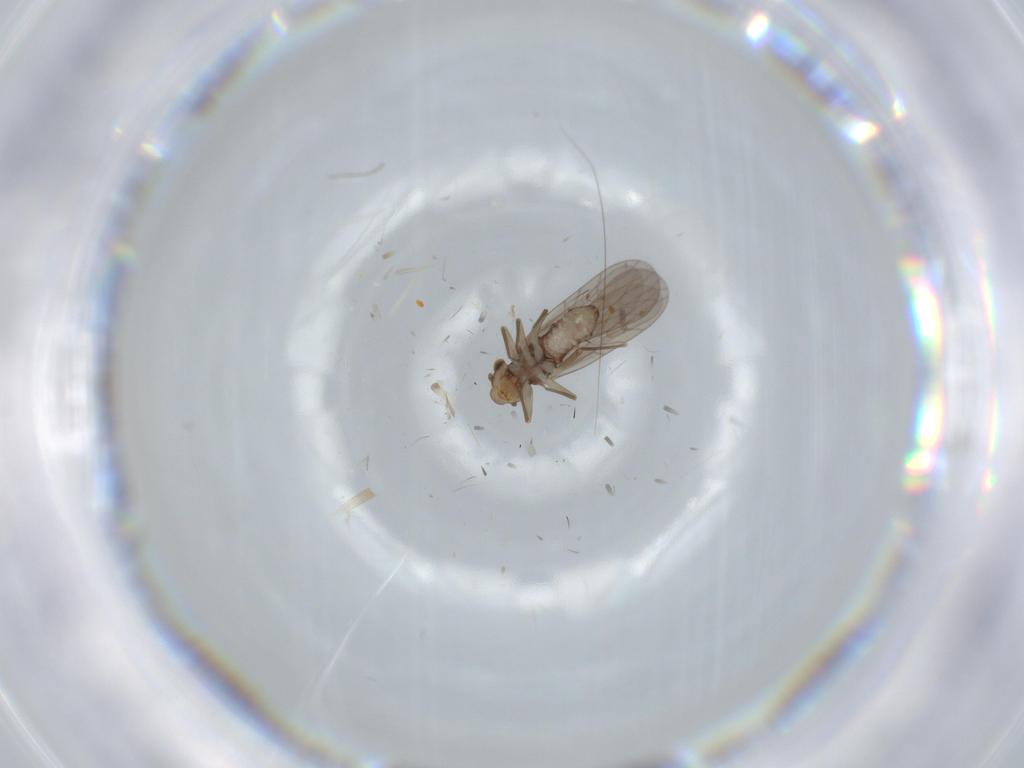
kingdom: Animalia
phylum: Arthropoda
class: Insecta
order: Psocodea
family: Lepidopsocidae
